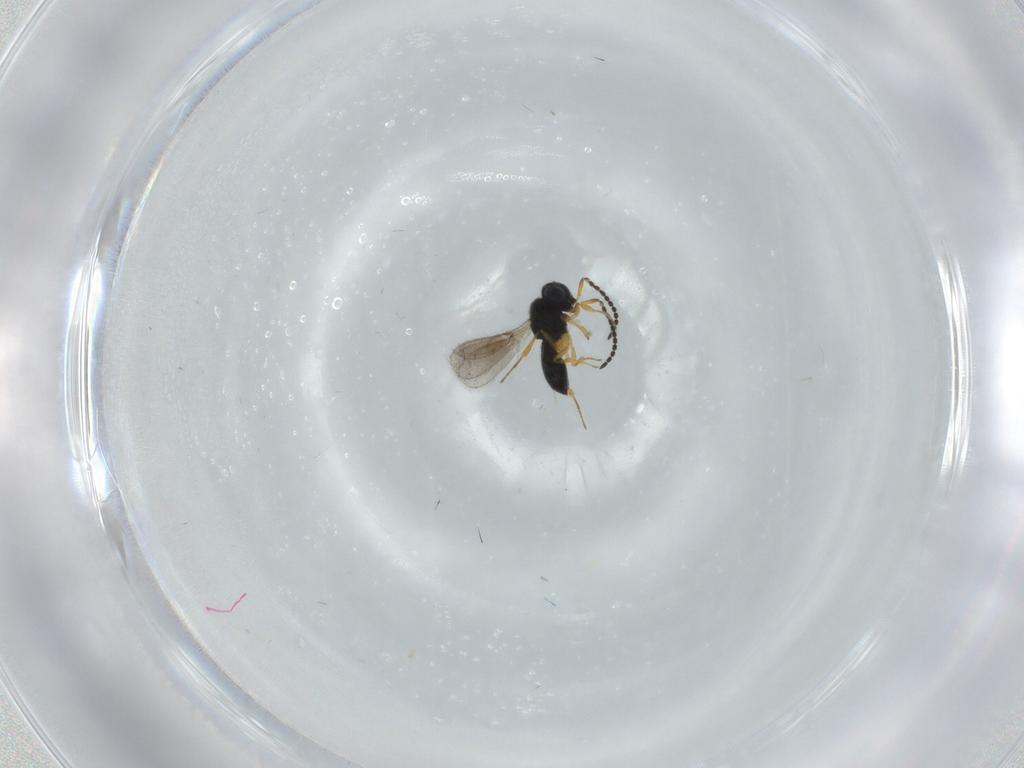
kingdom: Animalia
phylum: Arthropoda
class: Insecta
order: Hymenoptera
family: Scelionidae
